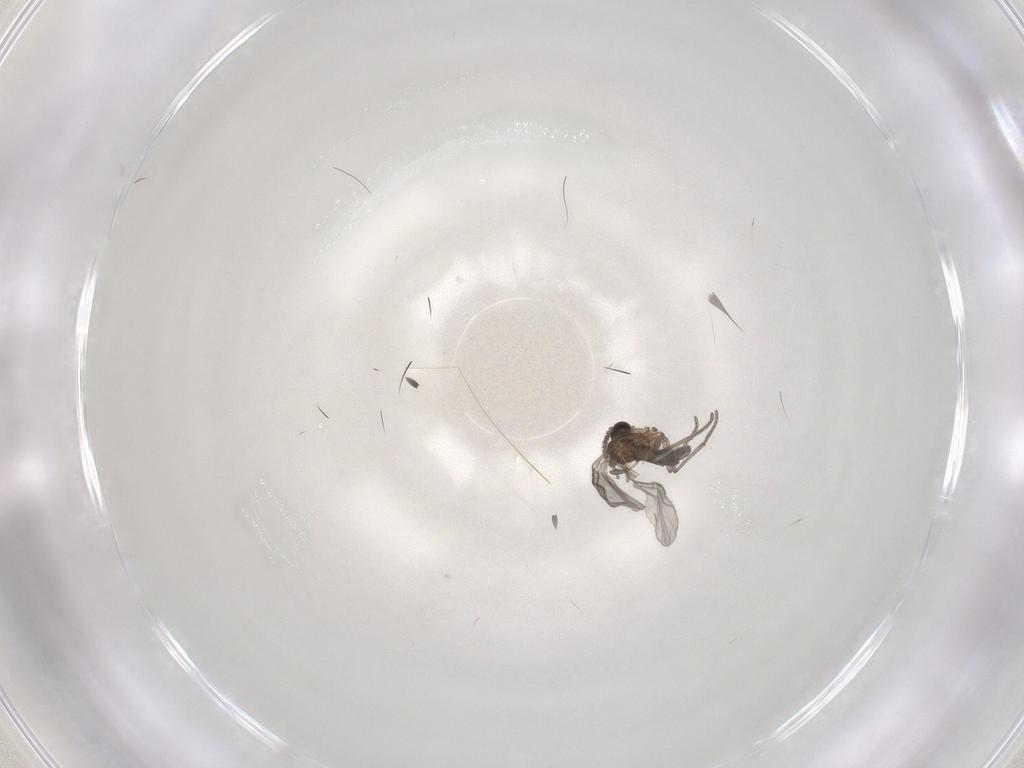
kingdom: Animalia
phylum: Arthropoda
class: Insecta
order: Diptera
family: Sciaridae
